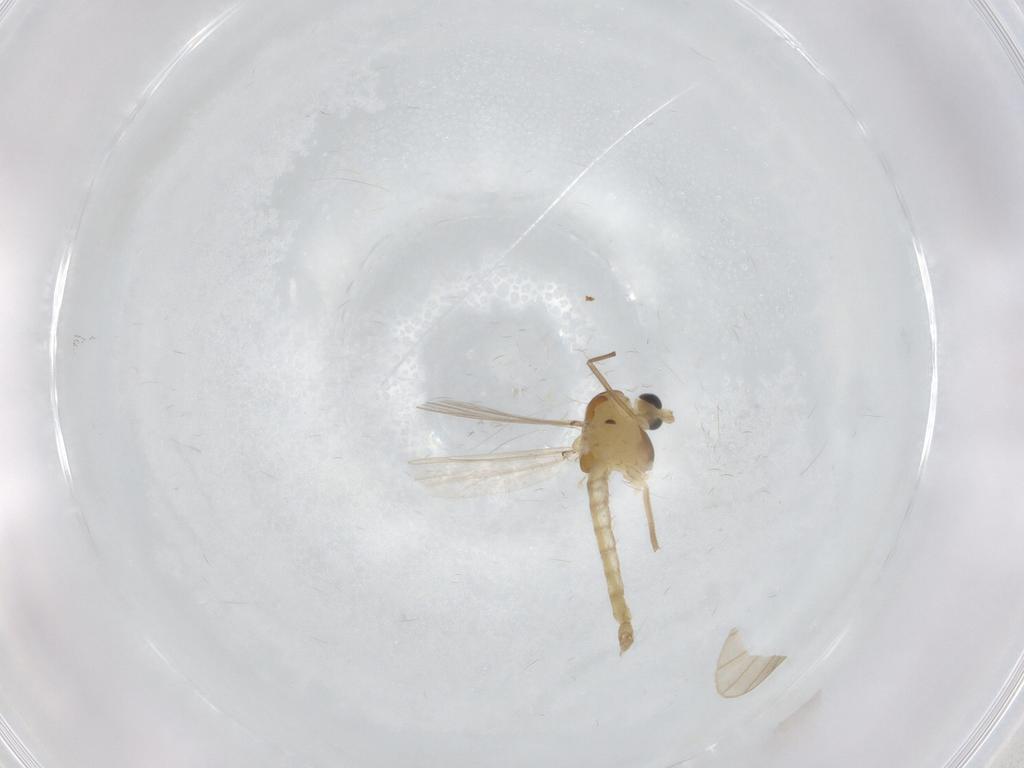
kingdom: Animalia
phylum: Arthropoda
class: Insecta
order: Diptera
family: Chironomidae
